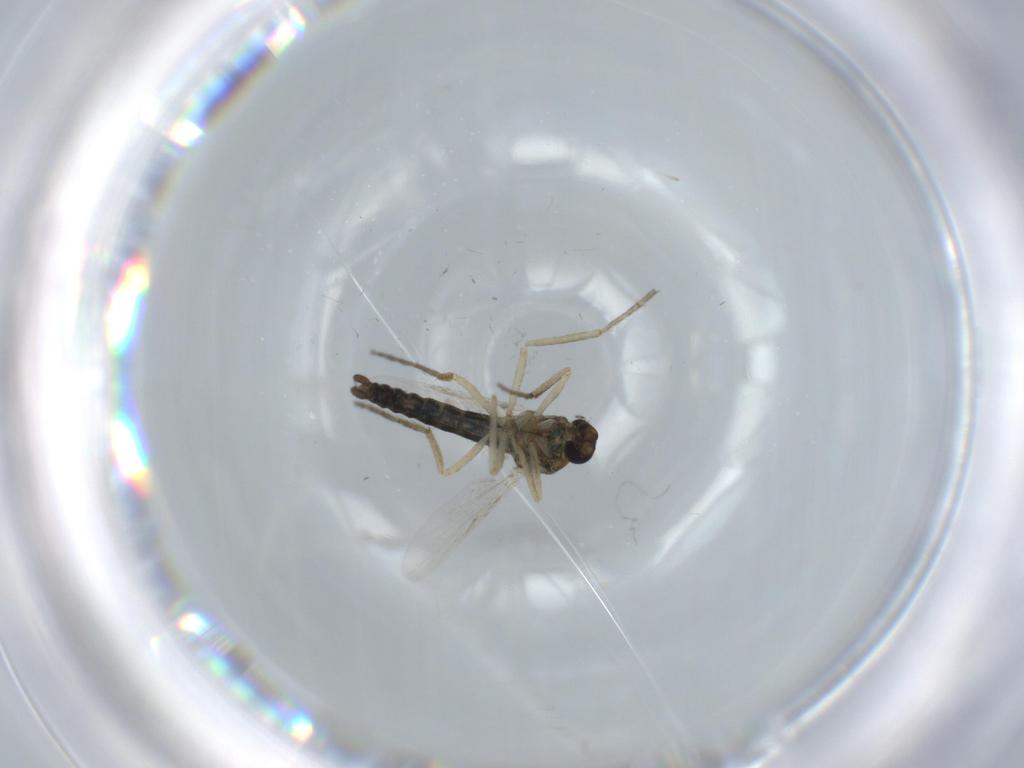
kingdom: Animalia
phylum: Arthropoda
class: Insecta
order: Diptera
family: Ceratopogonidae
